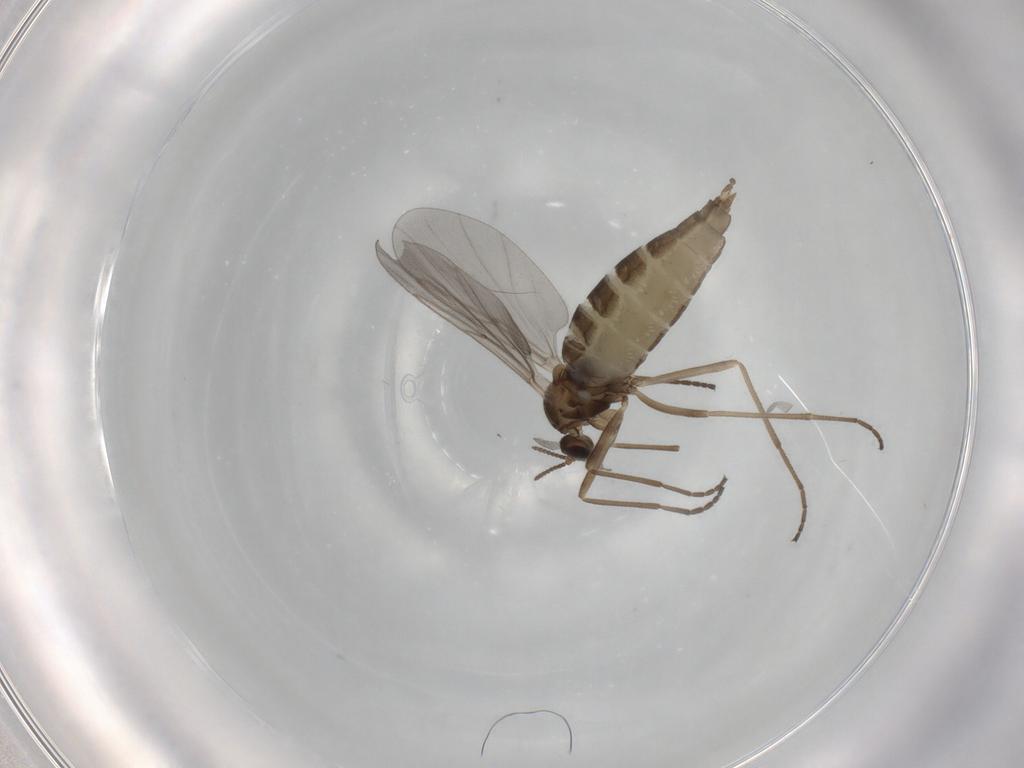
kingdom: Animalia
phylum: Arthropoda
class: Insecta
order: Diptera
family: Cecidomyiidae
